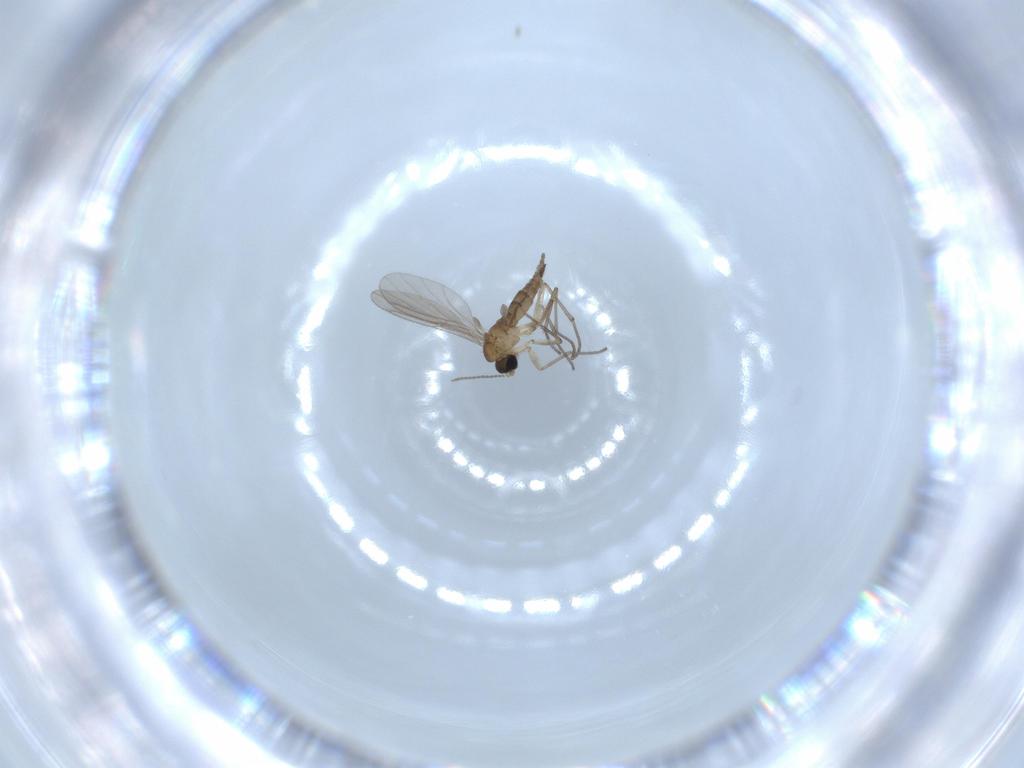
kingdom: Animalia
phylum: Arthropoda
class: Insecta
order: Diptera
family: Sciaridae
